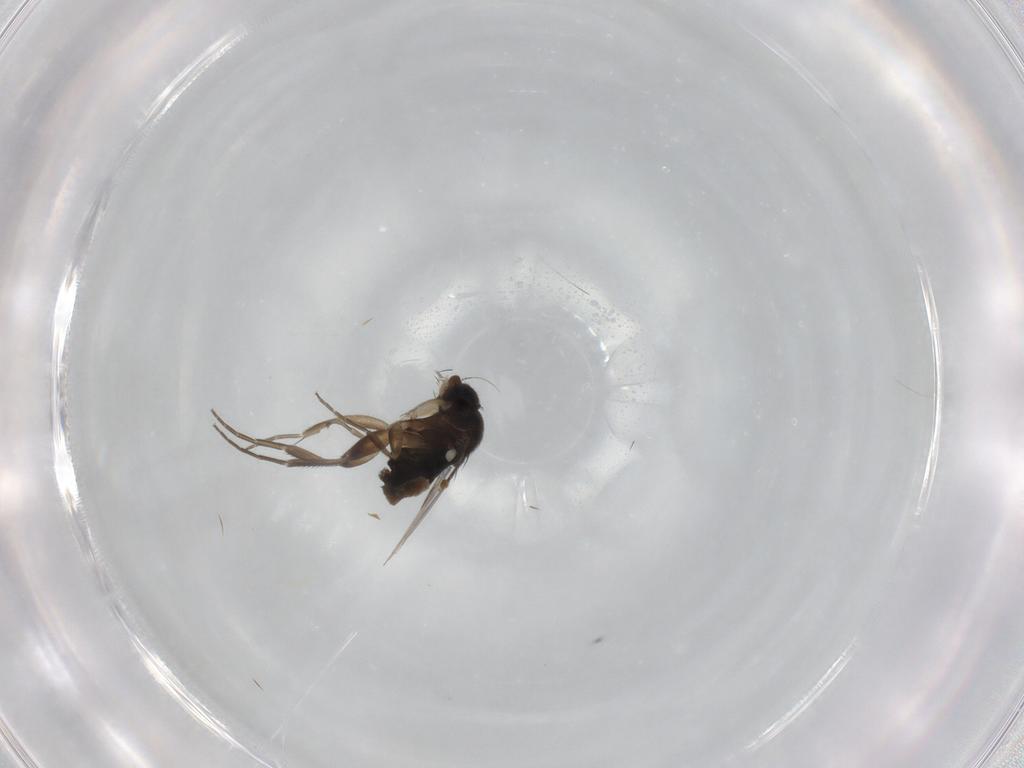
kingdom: Animalia
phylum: Arthropoda
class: Insecta
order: Diptera
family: Phoridae
